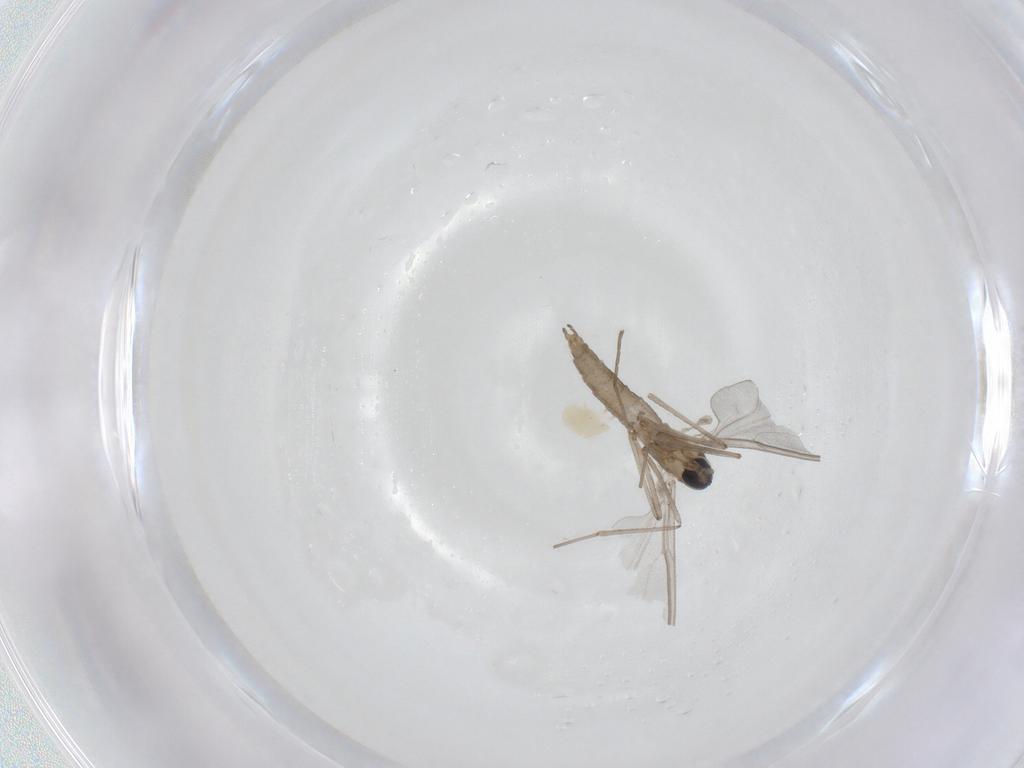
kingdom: Animalia
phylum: Arthropoda
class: Insecta
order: Diptera
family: Cecidomyiidae
